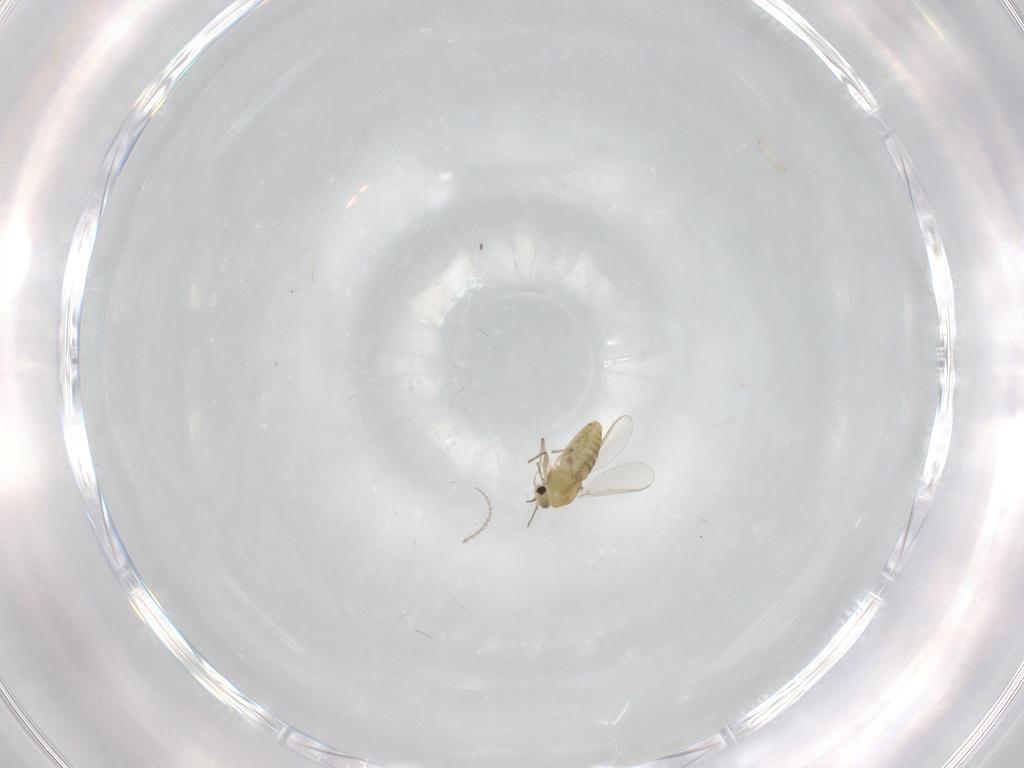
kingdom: Animalia
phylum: Arthropoda
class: Insecta
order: Diptera
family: Chironomidae
